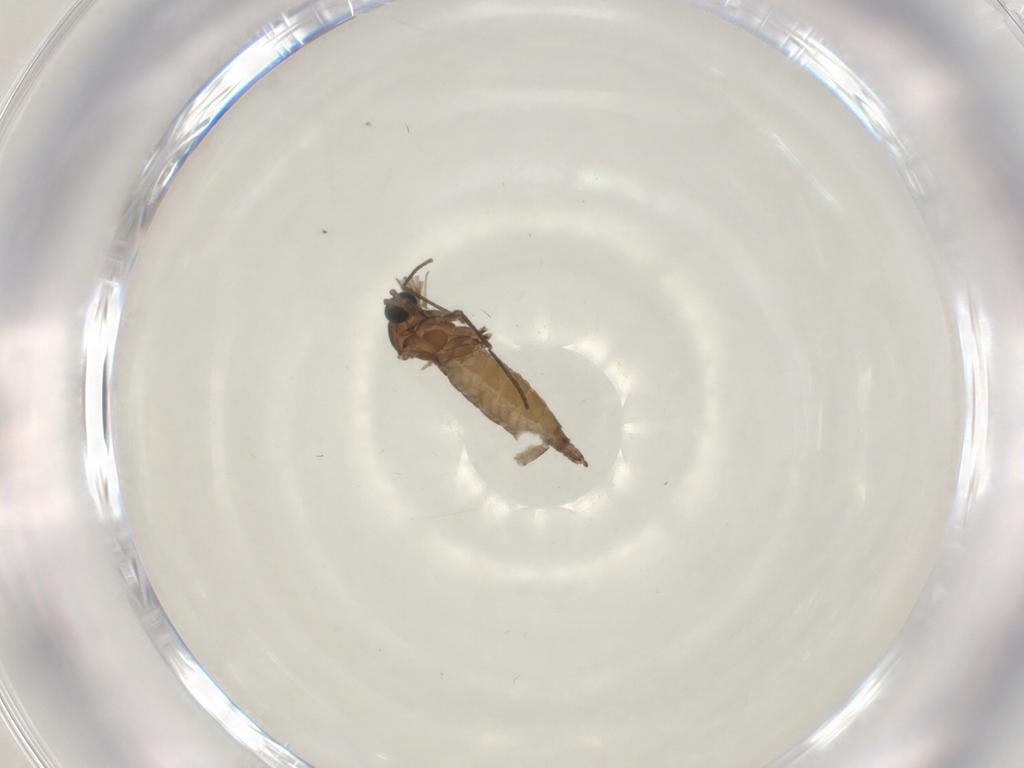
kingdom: Animalia
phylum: Arthropoda
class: Insecta
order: Diptera
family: Sciaridae
